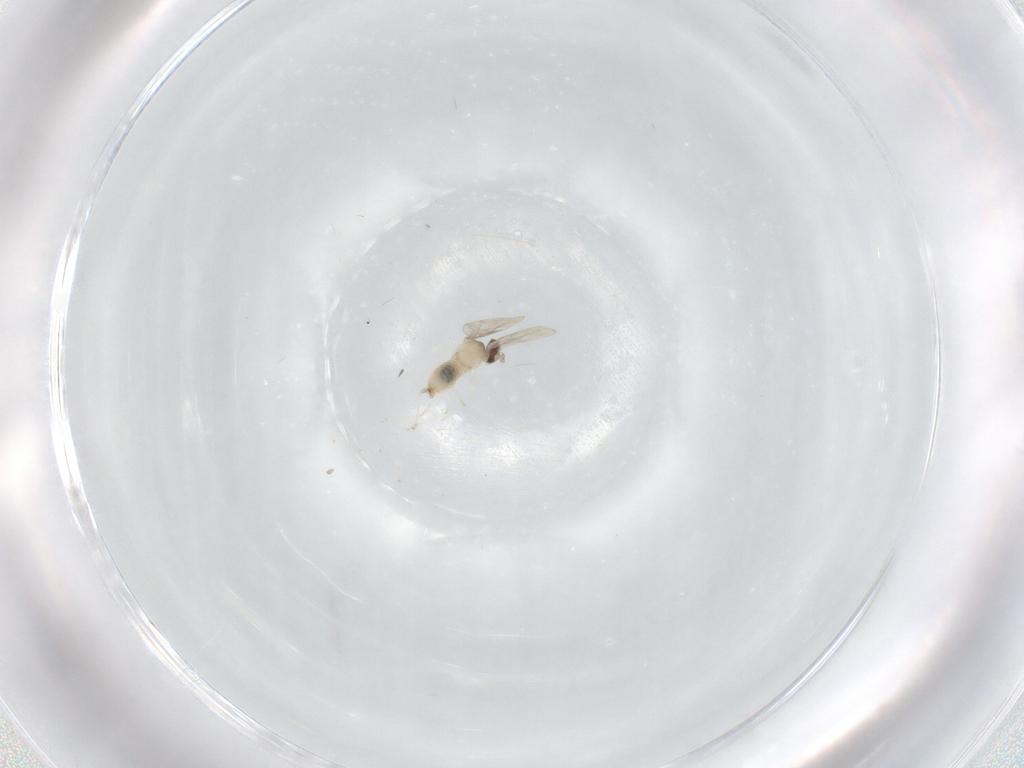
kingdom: Animalia
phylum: Arthropoda
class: Insecta
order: Diptera
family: Cecidomyiidae
